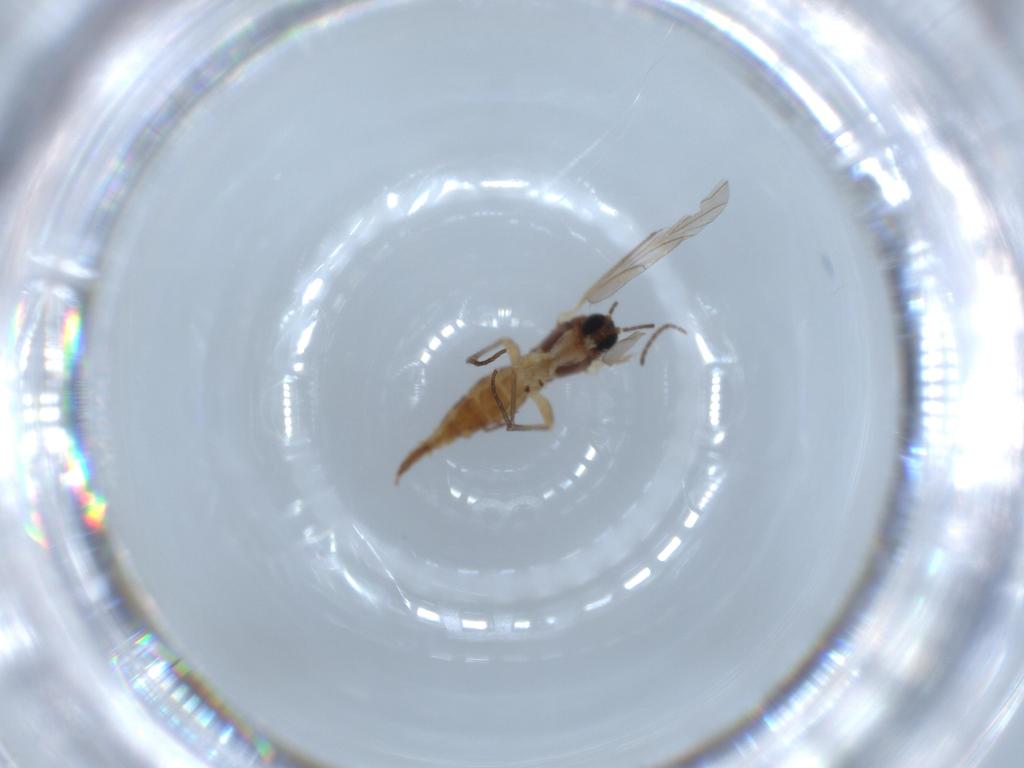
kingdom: Animalia
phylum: Arthropoda
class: Insecta
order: Diptera
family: Sciaridae
